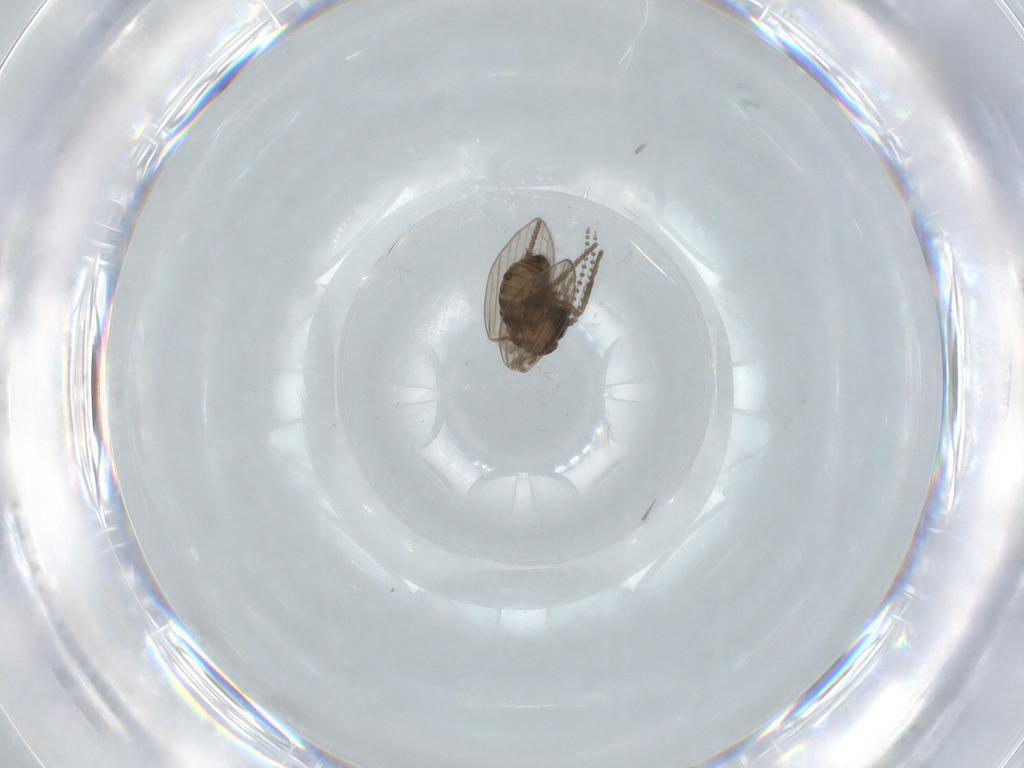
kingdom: Animalia
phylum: Arthropoda
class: Insecta
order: Diptera
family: Psychodidae
